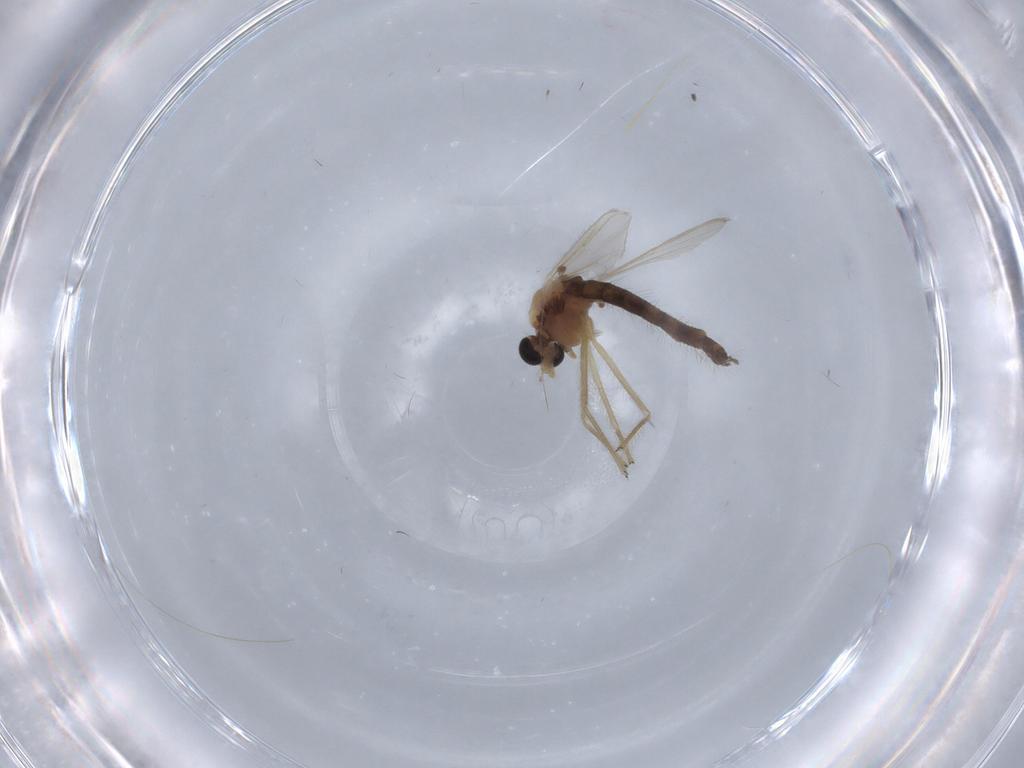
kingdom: Animalia
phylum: Arthropoda
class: Insecta
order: Diptera
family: Chironomidae
